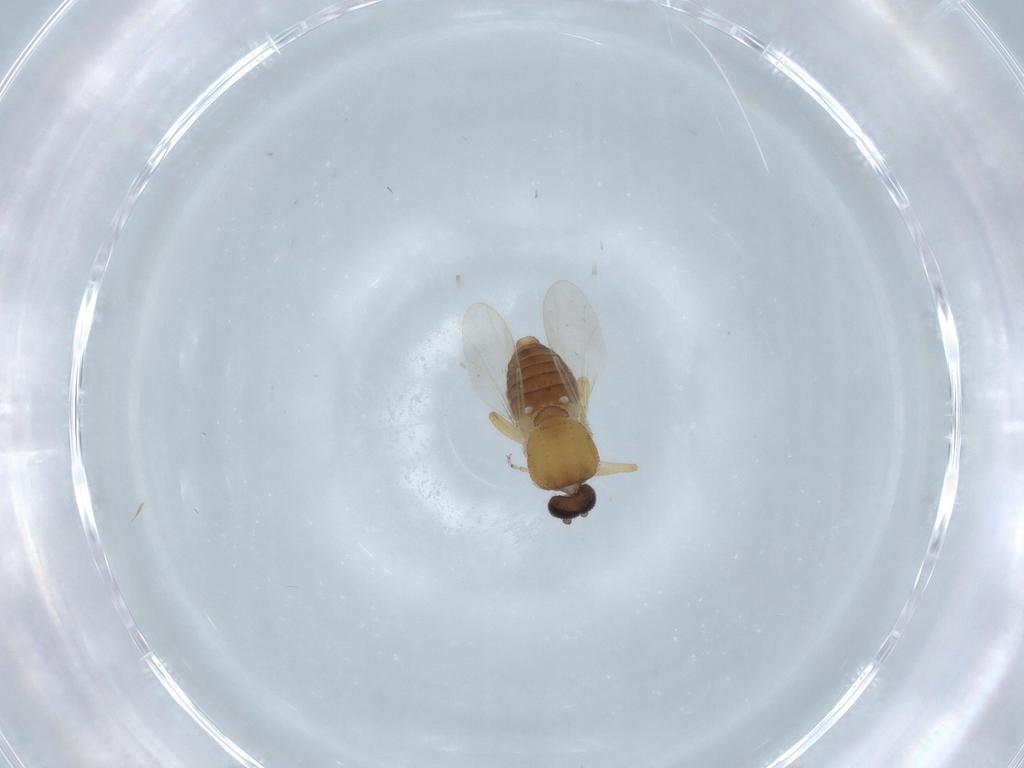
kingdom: Animalia
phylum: Arthropoda
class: Insecta
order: Diptera
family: Ceratopogonidae
